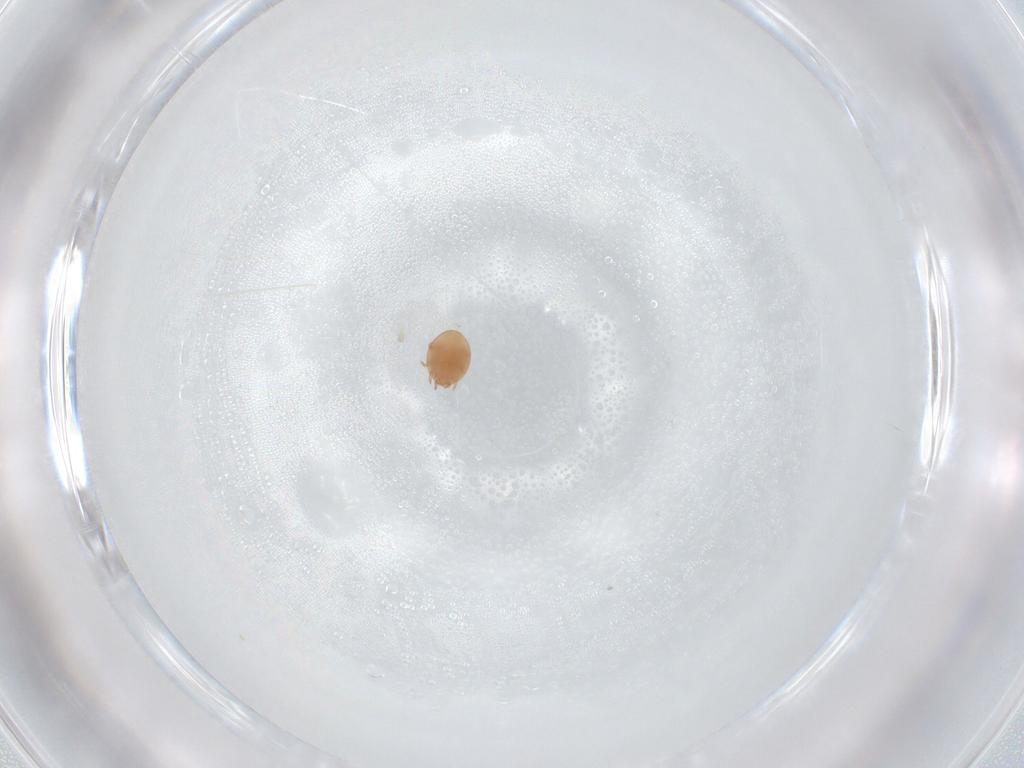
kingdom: Animalia
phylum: Arthropoda
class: Arachnida
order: Mesostigmata
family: Trematuridae
